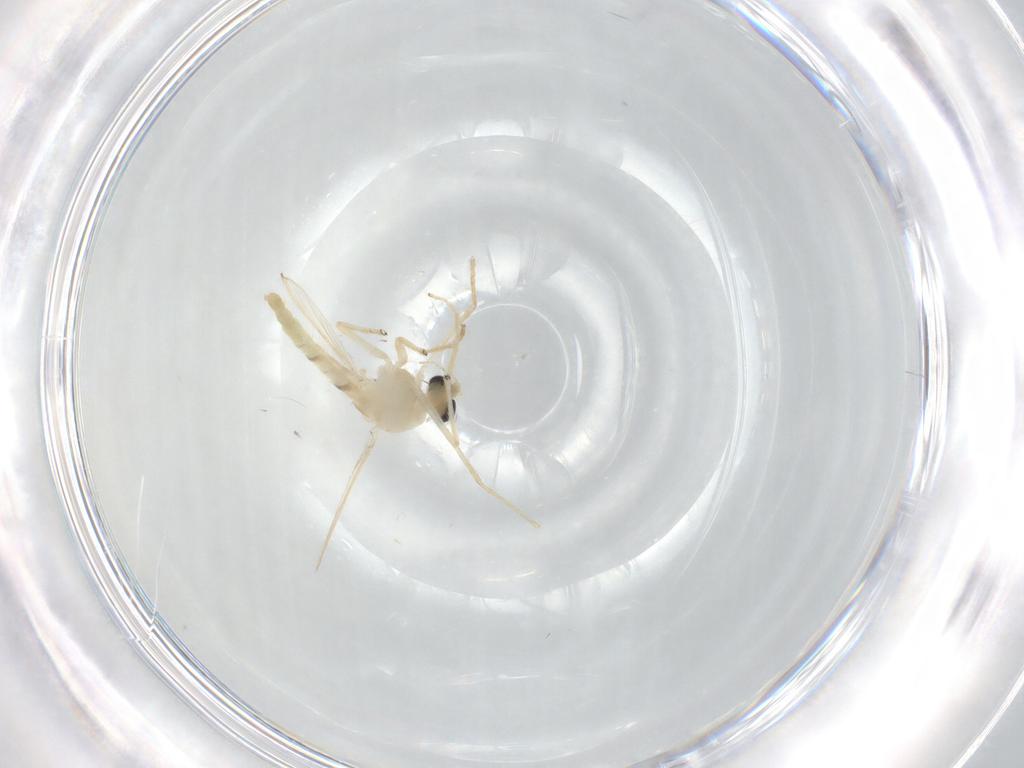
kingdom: Animalia
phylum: Arthropoda
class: Insecta
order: Diptera
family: Chironomidae
